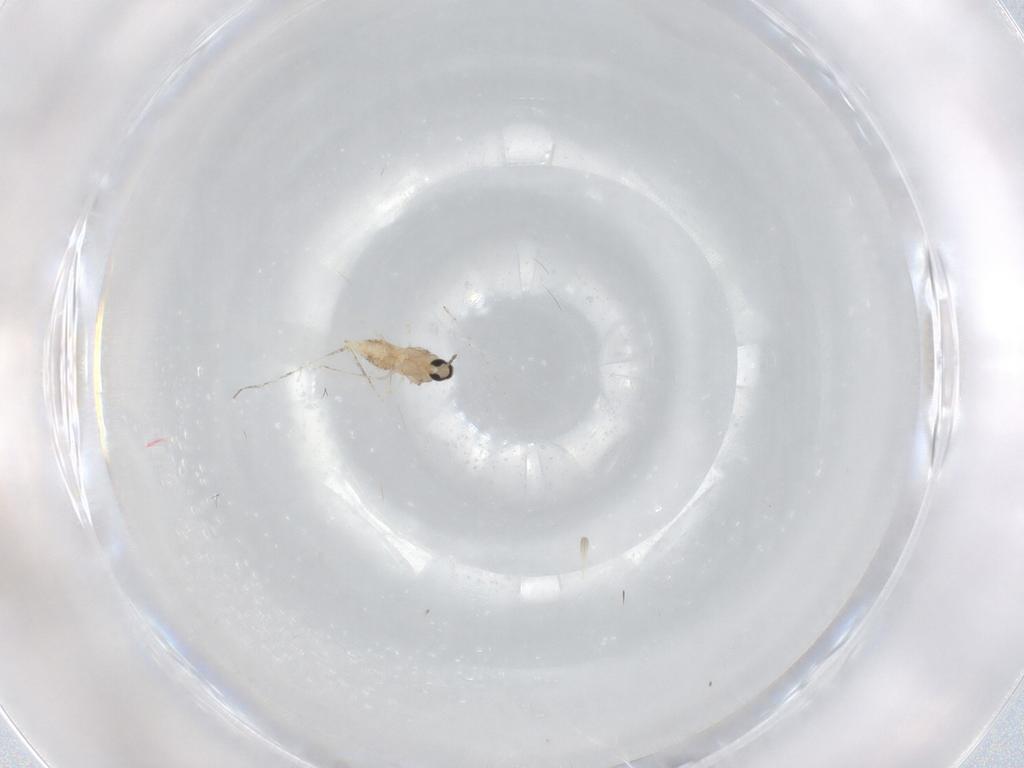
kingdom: Animalia
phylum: Arthropoda
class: Insecta
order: Diptera
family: Cecidomyiidae
